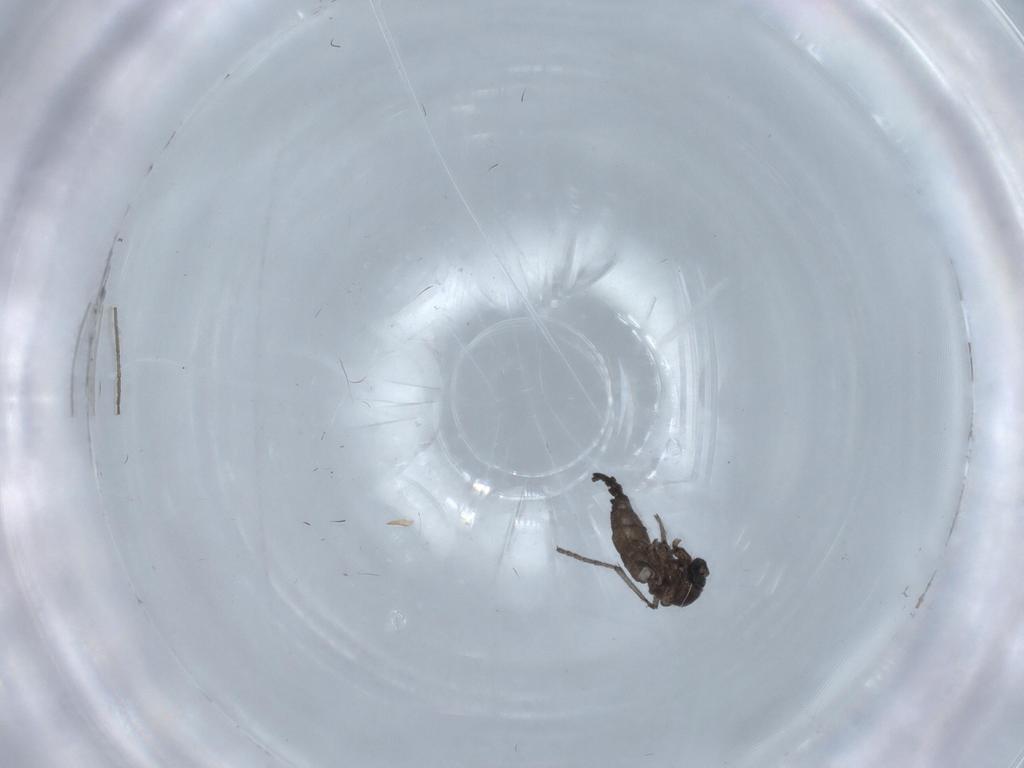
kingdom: Animalia
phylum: Arthropoda
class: Insecta
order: Diptera
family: Sciaridae
